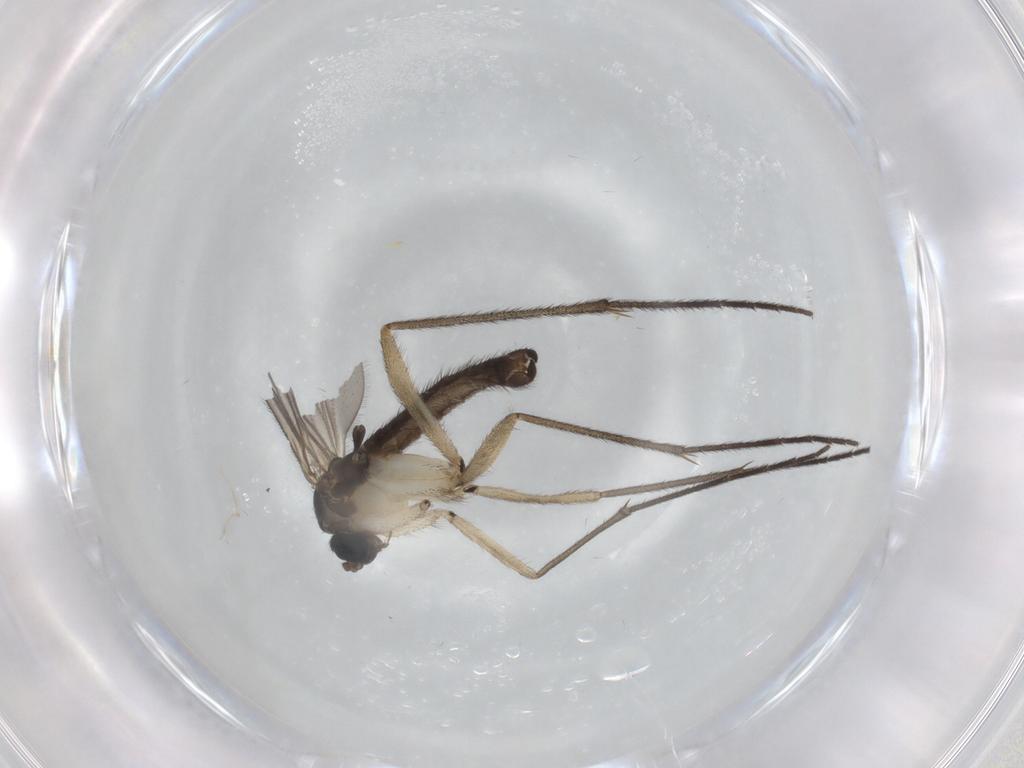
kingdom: Animalia
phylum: Arthropoda
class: Insecta
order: Diptera
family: Sciaridae
